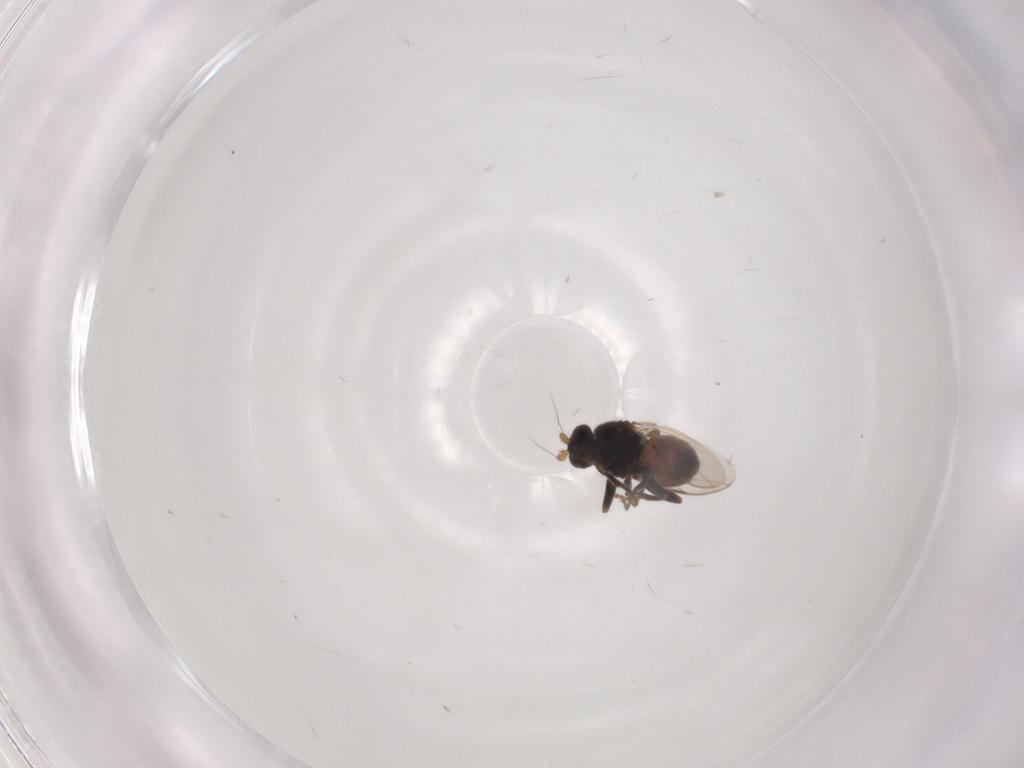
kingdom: Animalia
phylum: Arthropoda
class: Insecta
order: Diptera
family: Sphaeroceridae
